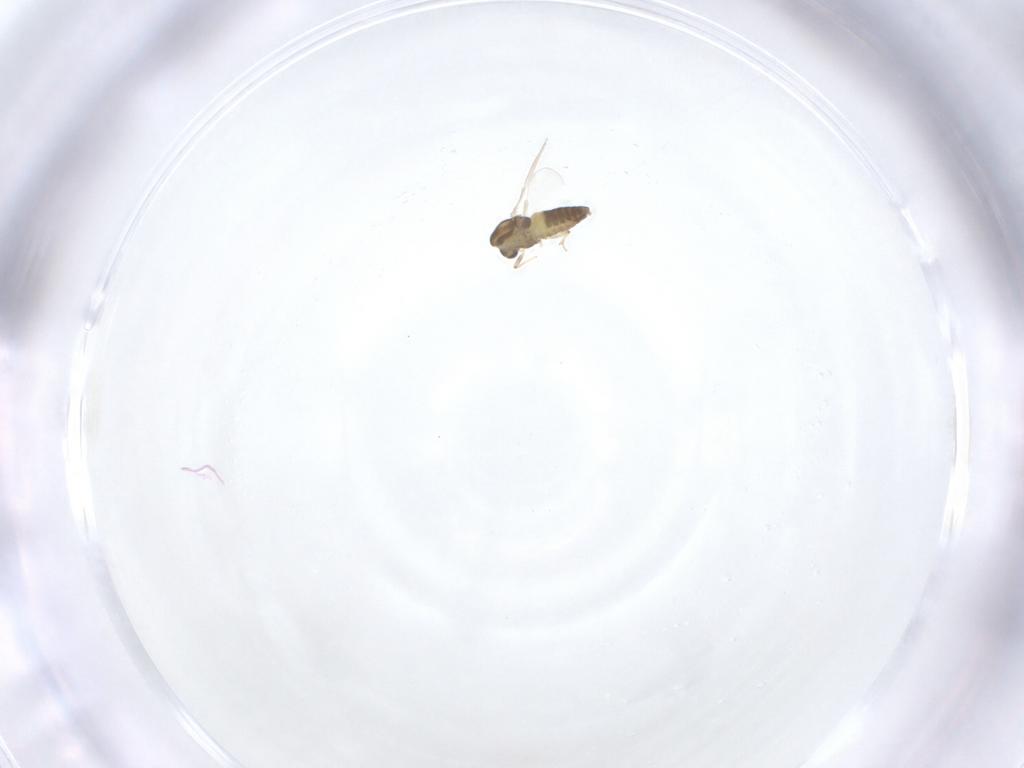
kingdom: Animalia
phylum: Arthropoda
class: Insecta
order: Diptera
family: Chironomidae
